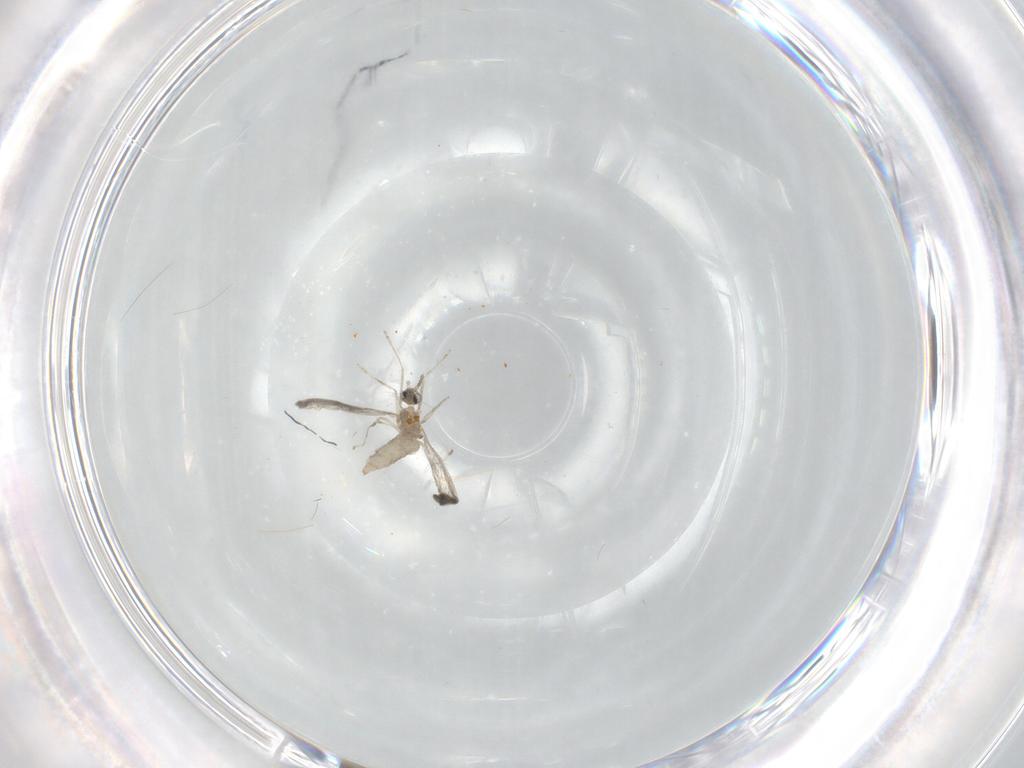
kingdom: Animalia
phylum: Arthropoda
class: Insecta
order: Diptera
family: Cecidomyiidae
